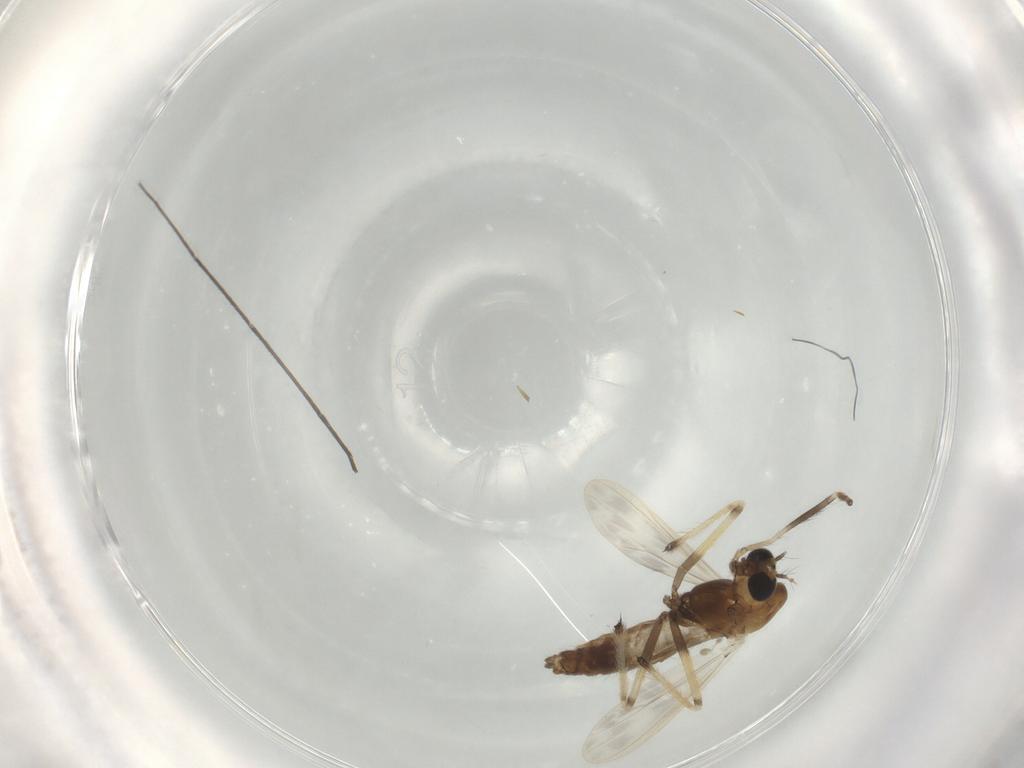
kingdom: Animalia
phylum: Arthropoda
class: Insecta
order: Diptera
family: Chironomidae
